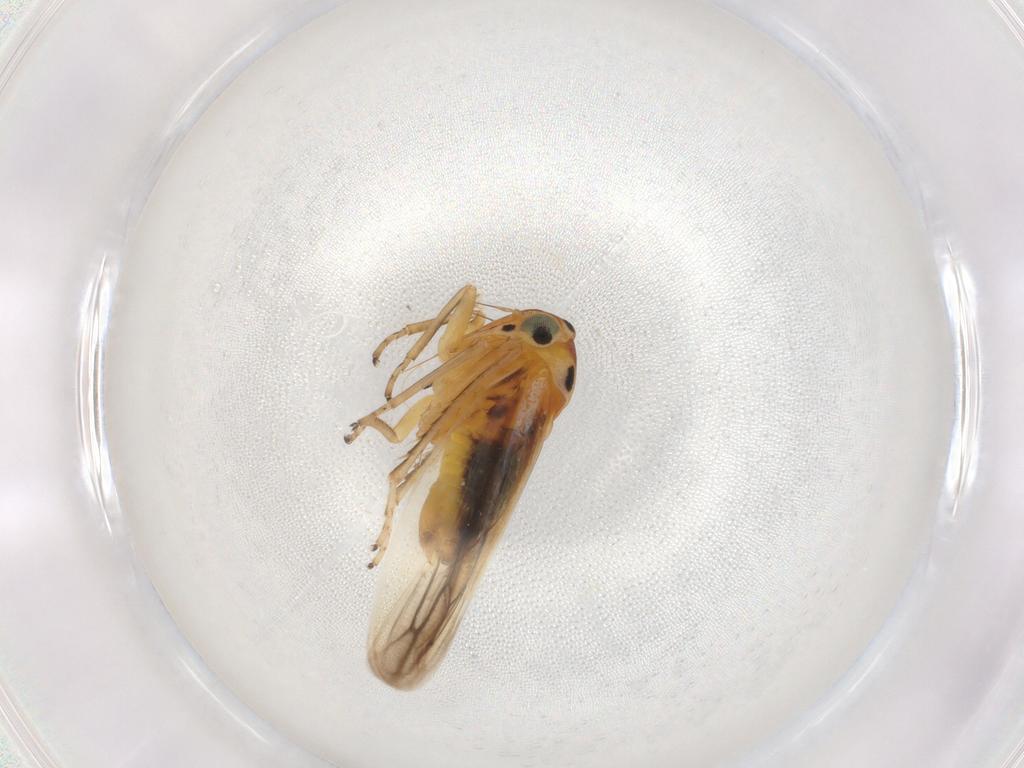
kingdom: Animalia
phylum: Arthropoda
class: Insecta
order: Hemiptera
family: Cicadellidae
